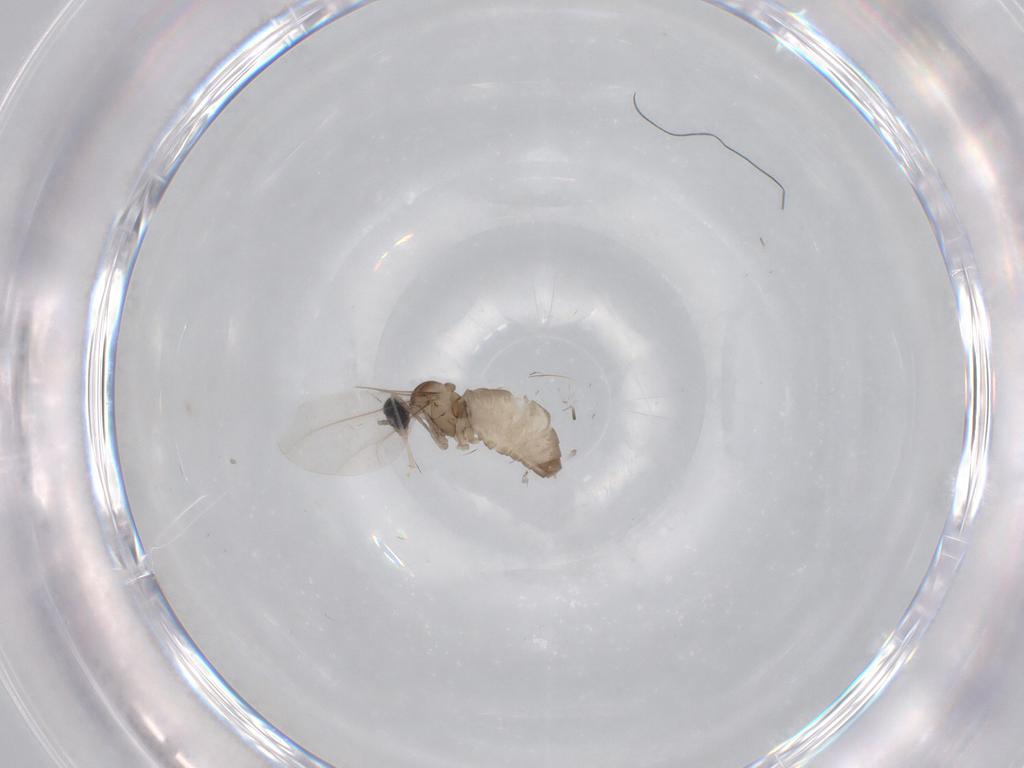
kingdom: Animalia
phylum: Arthropoda
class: Insecta
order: Diptera
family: Cecidomyiidae
